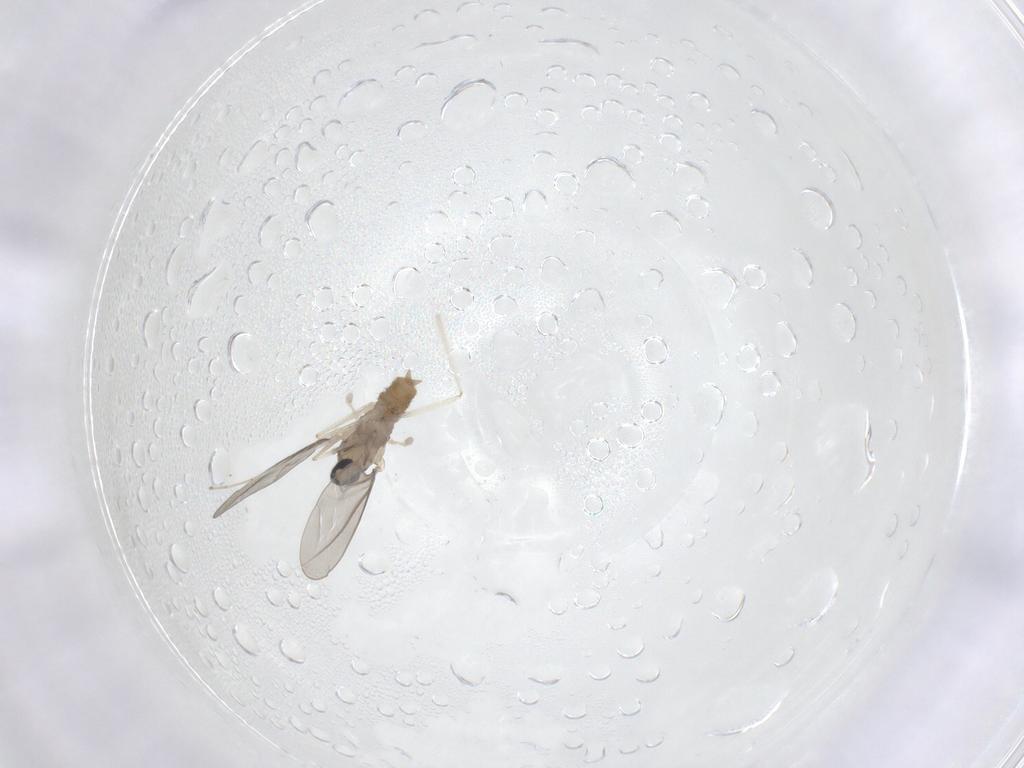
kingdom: Animalia
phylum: Arthropoda
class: Insecta
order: Diptera
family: Cecidomyiidae
